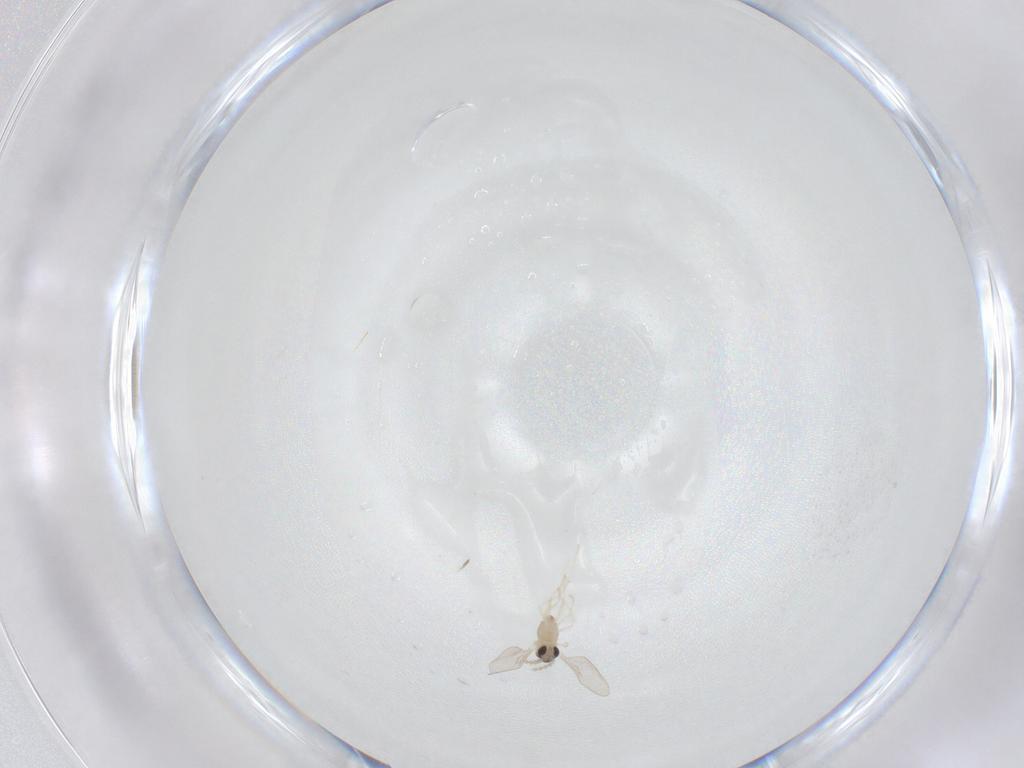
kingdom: Animalia
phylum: Arthropoda
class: Insecta
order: Diptera
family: Cecidomyiidae
